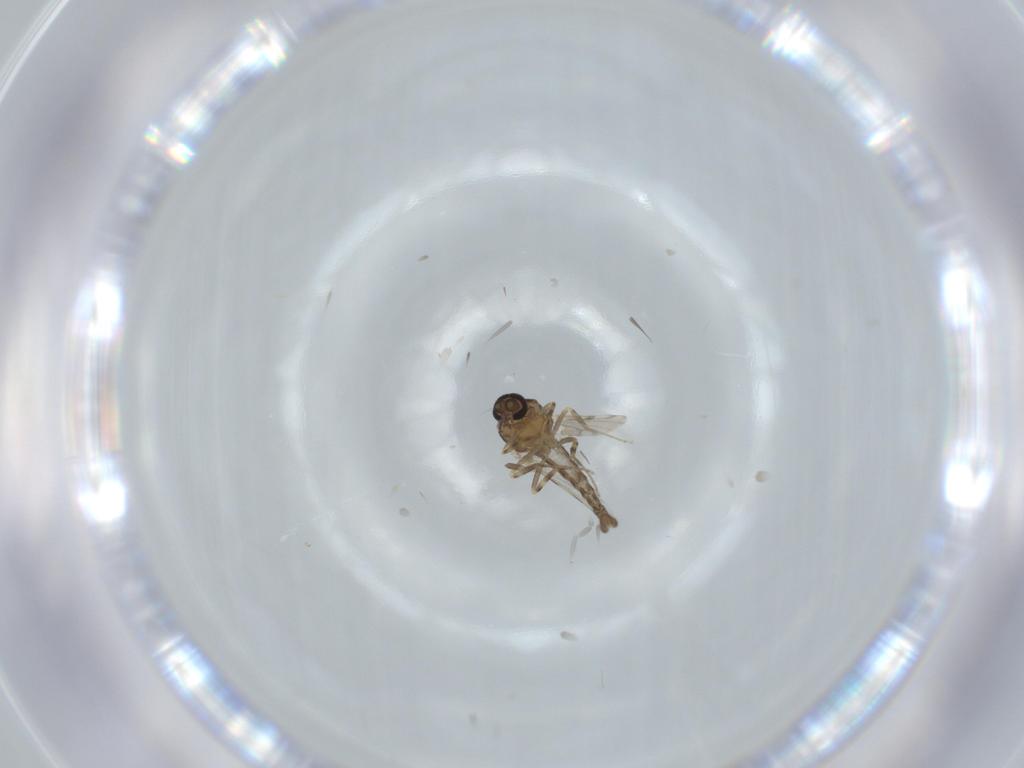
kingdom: Animalia
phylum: Arthropoda
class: Insecta
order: Diptera
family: Ceratopogonidae
